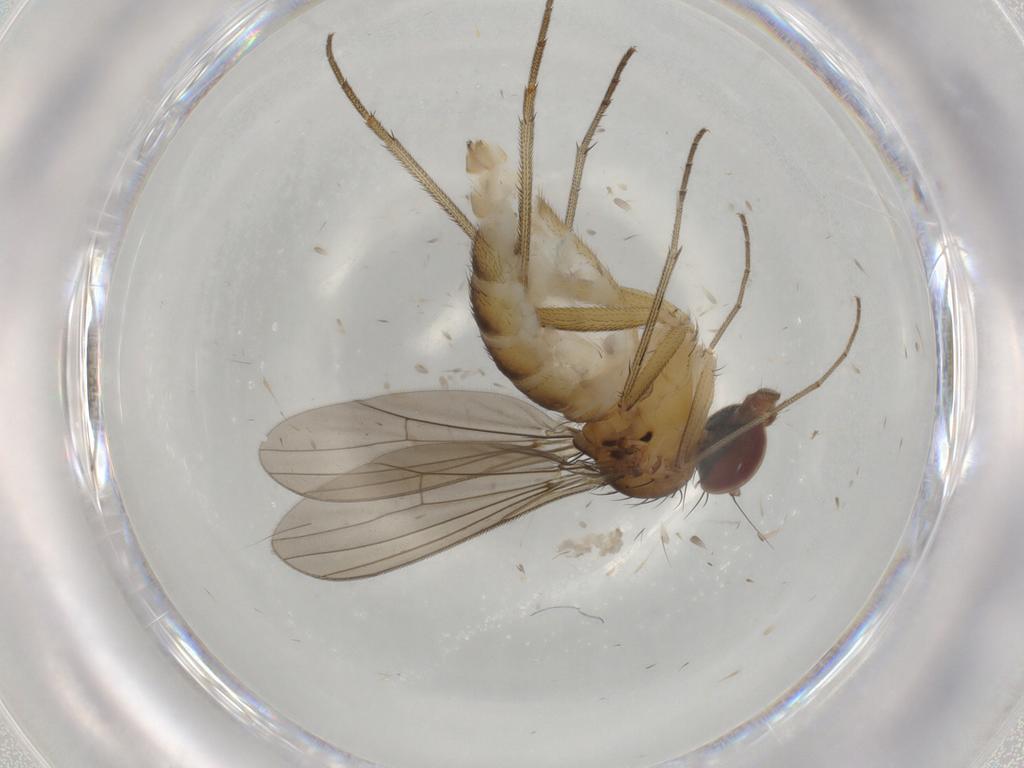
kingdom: Animalia
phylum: Arthropoda
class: Insecta
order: Diptera
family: Dolichopodidae
